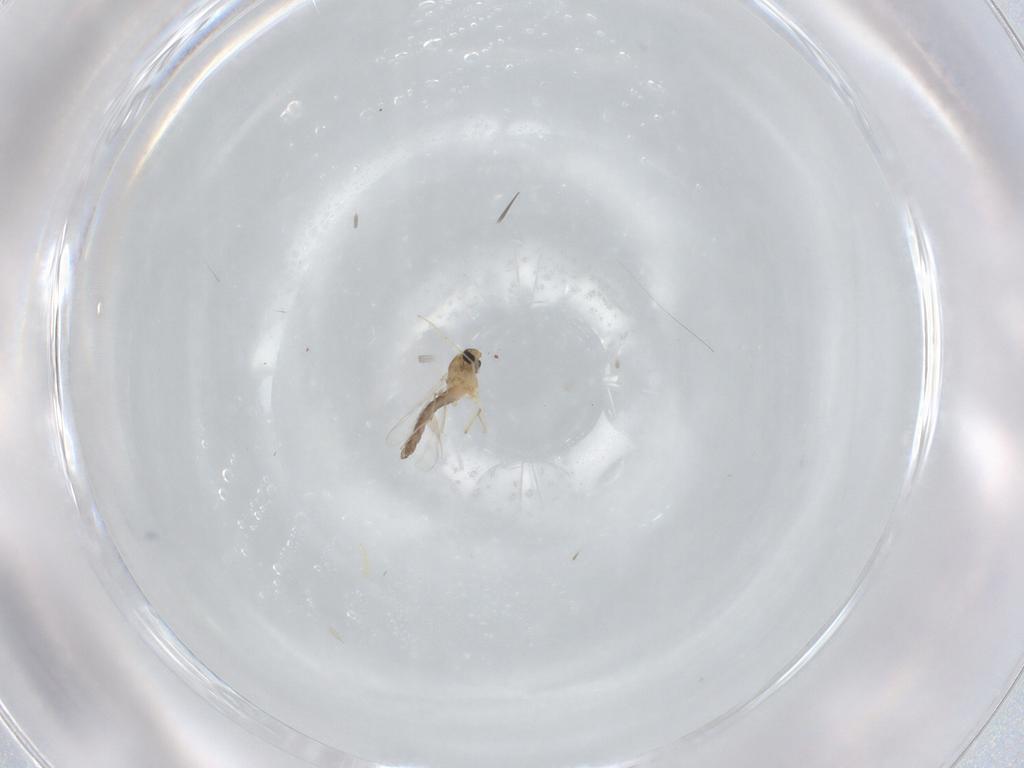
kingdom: Animalia
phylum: Arthropoda
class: Insecta
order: Diptera
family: Chironomidae
